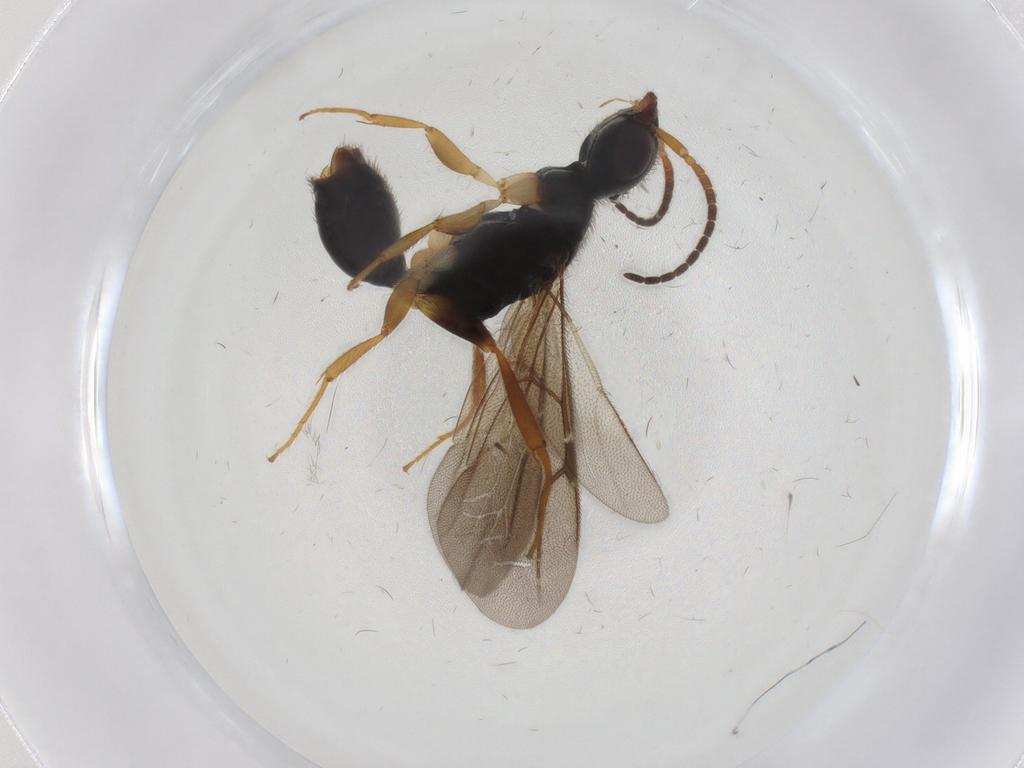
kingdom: Animalia
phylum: Arthropoda
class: Insecta
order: Hymenoptera
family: Bethylidae
